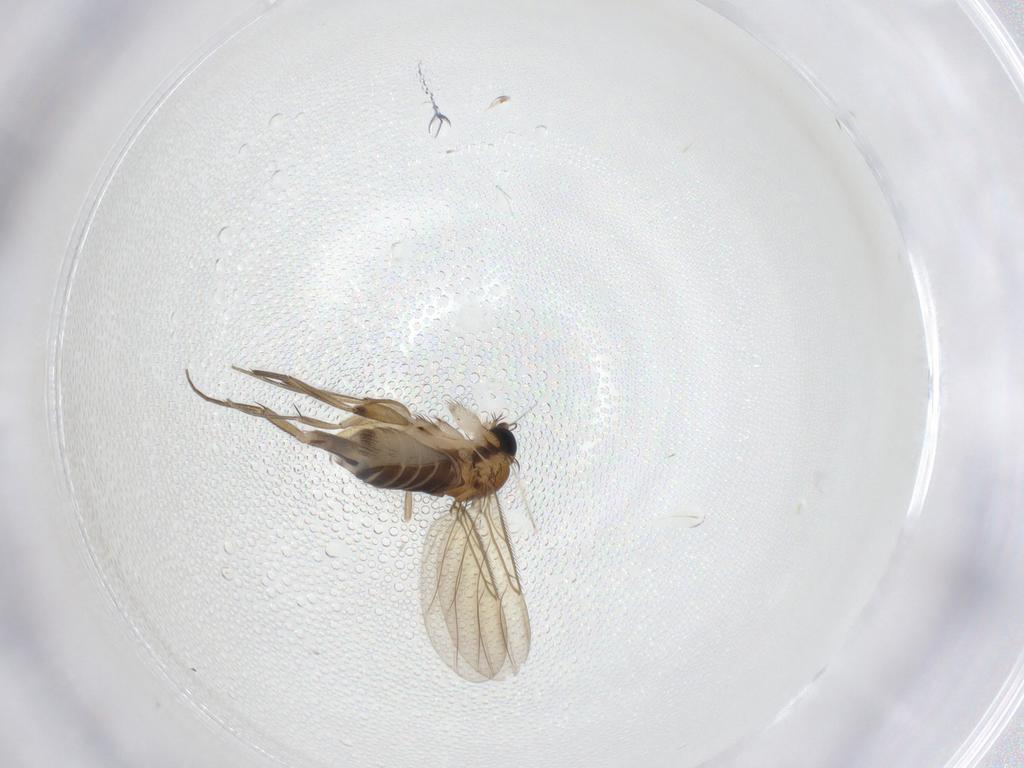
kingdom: Animalia
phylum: Arthropoda
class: Insecta
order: Diptera
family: Phoridae
